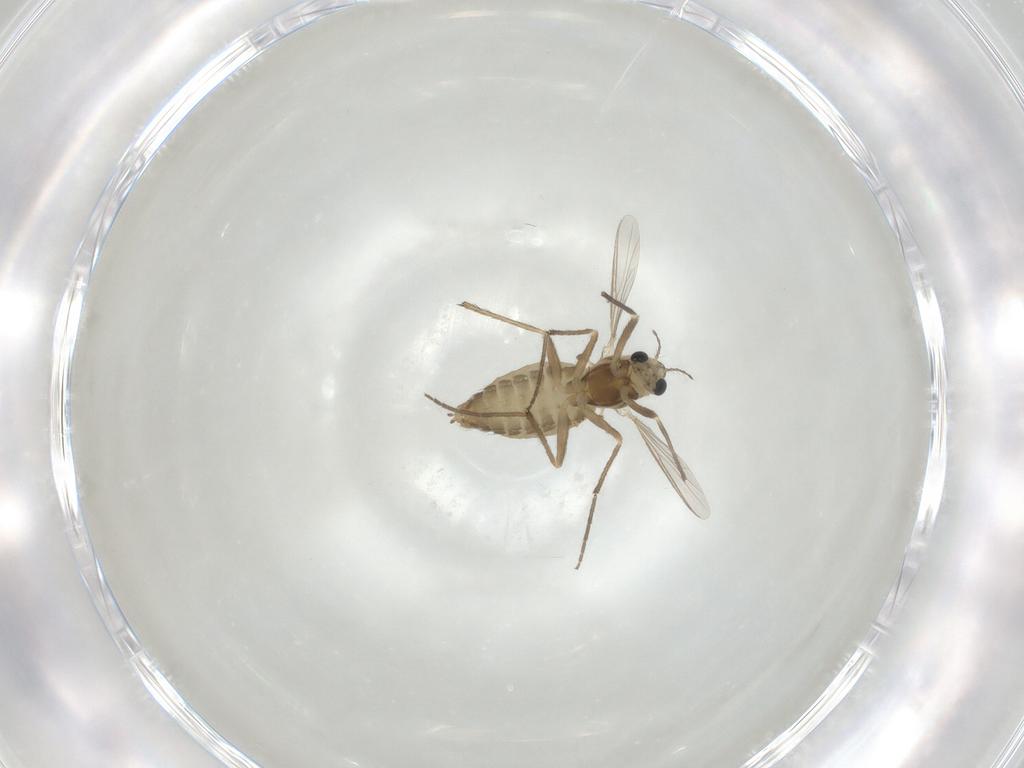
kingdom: Animalia
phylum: Arthropoda
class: Insecta
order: Diptera
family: Chironomidae
